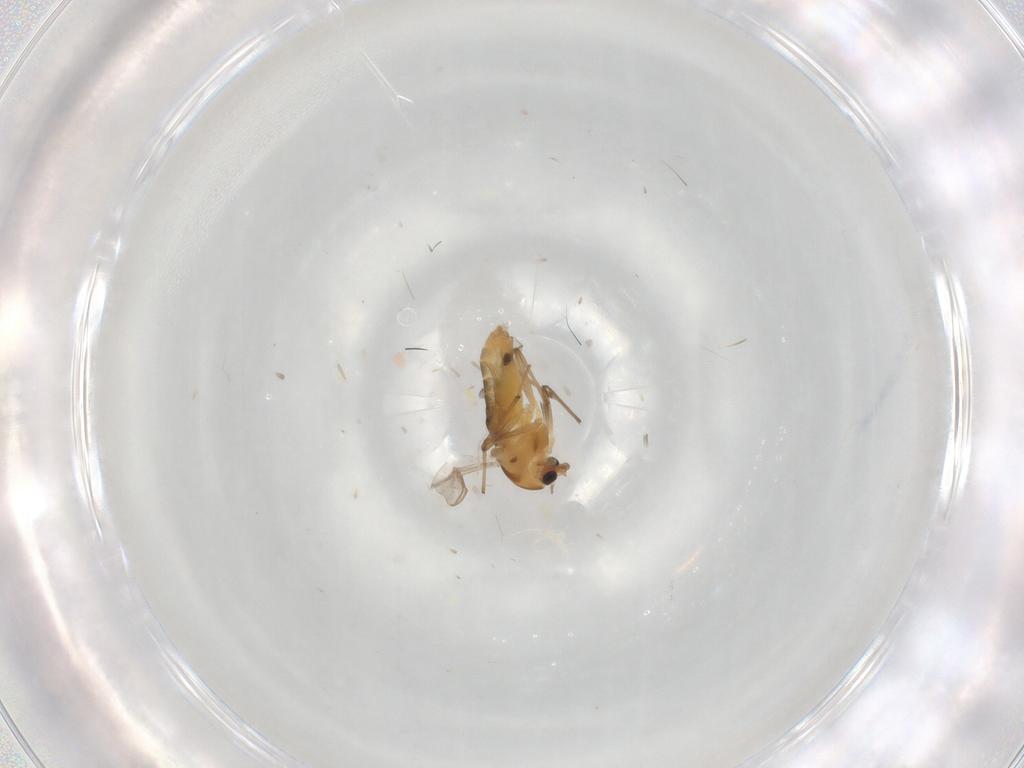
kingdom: Animalia
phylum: Arthropoda
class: Insecta
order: Diptera
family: Chironomidae
